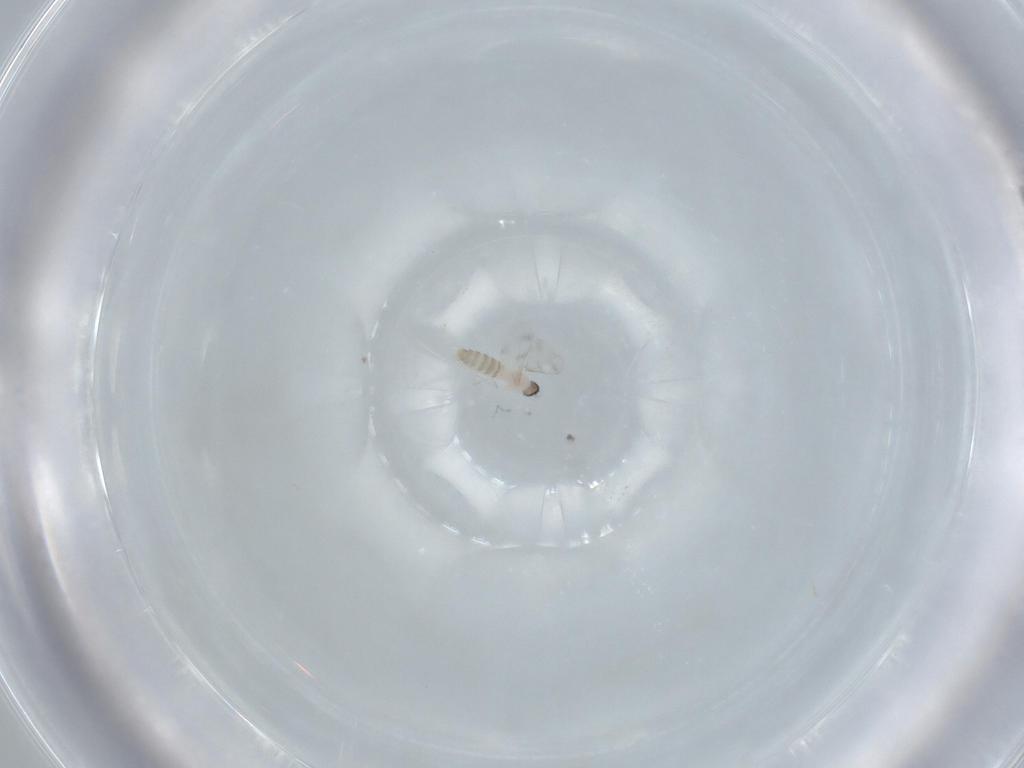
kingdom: Animalia
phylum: Arthropoda
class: Insecta
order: Diptera
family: Cecidomyiidae
